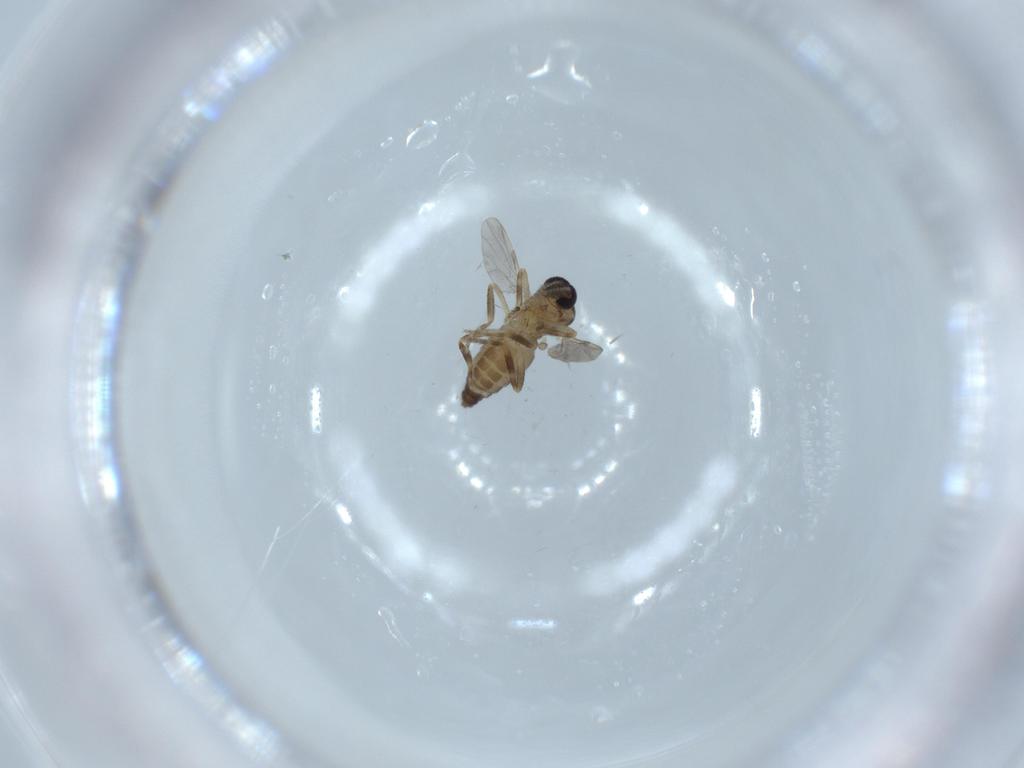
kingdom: Animalia
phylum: Arthropoda
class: Insecta
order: Diptera
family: Ceratopogonidae
